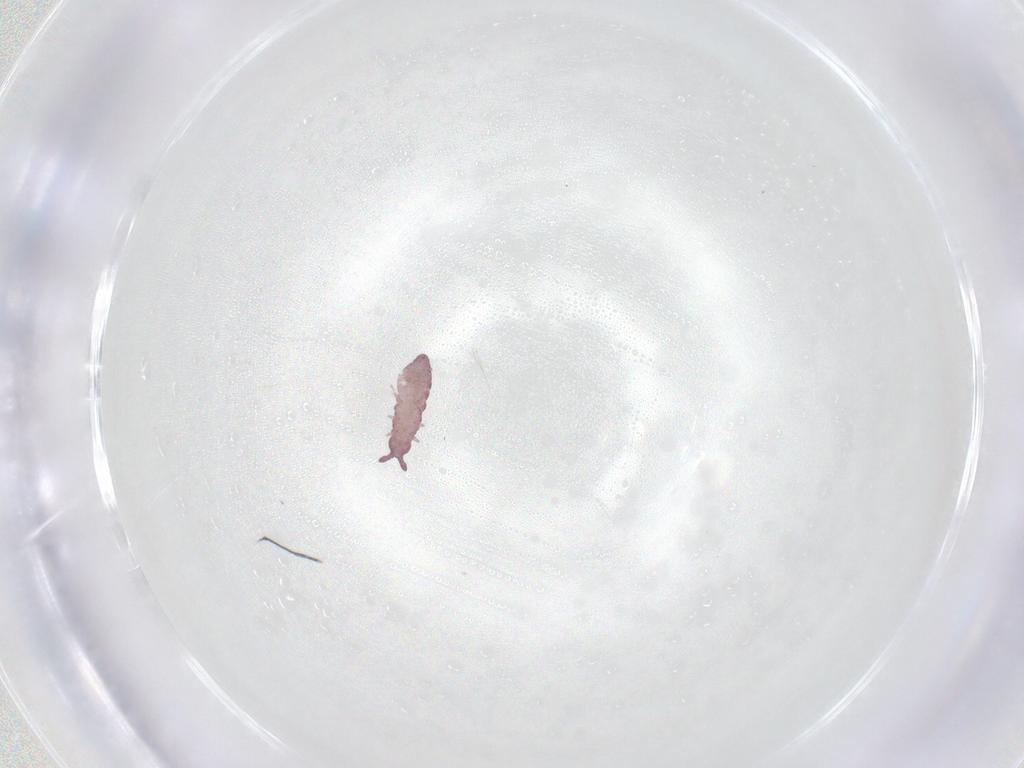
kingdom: Animalia
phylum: Arthropoda
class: Collembola
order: Poduromorpha
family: Hypogastruridae
